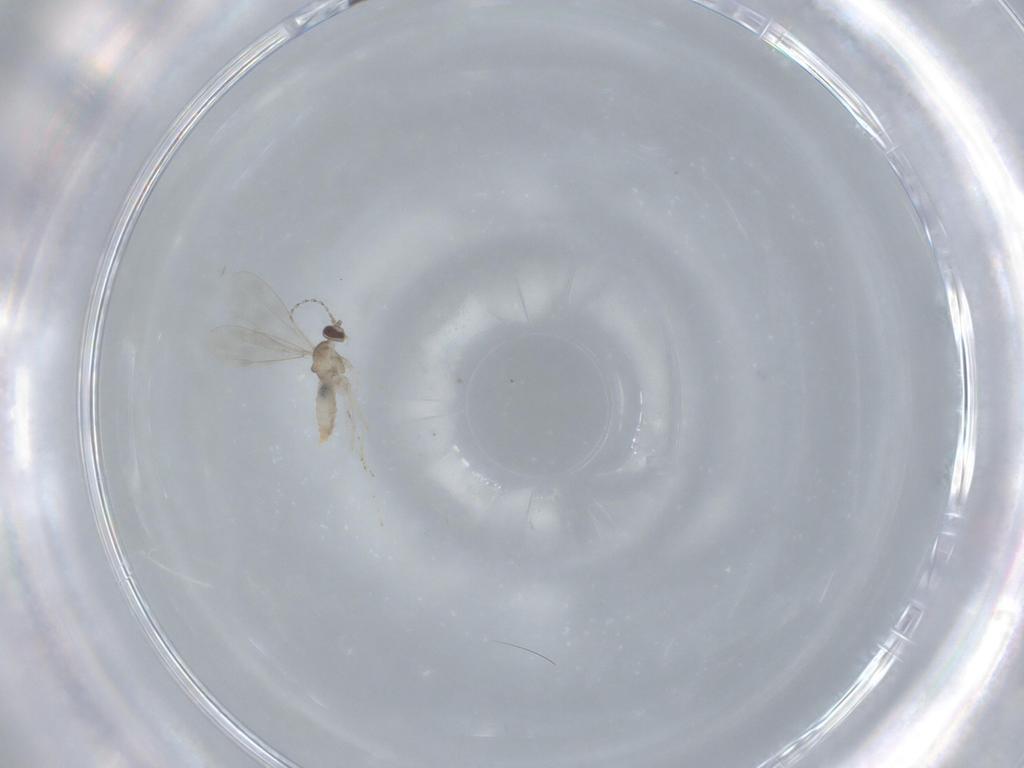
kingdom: Animalia
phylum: Arthropoda
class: Insecta
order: Diptera
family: Cecidomyiidae
